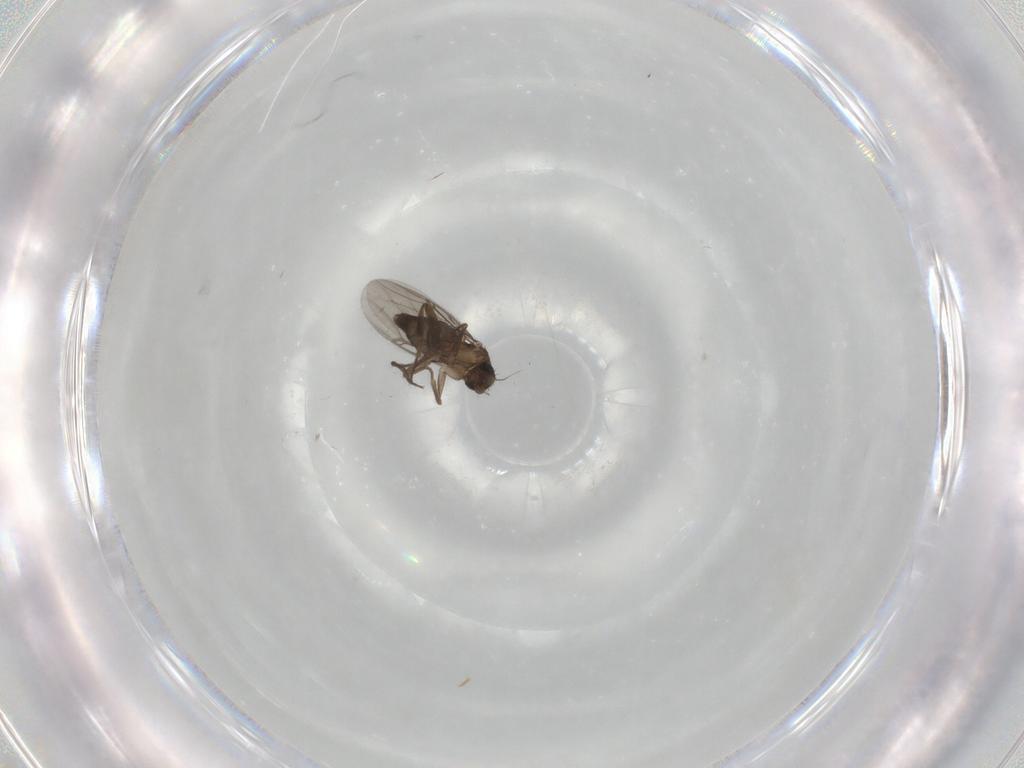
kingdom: Animalia
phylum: Arthropoda
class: Insecta
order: Diptera
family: Phoridae
